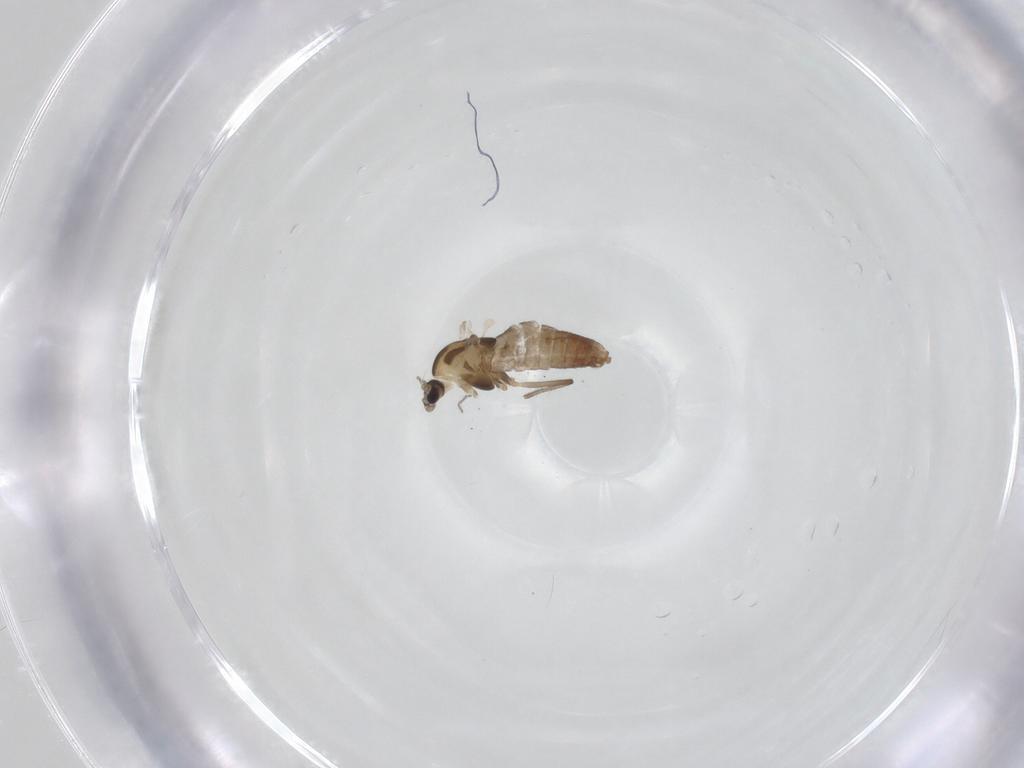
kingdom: Animalia
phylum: Arthropoda
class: Insecta
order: Diptera
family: Chironomidae
